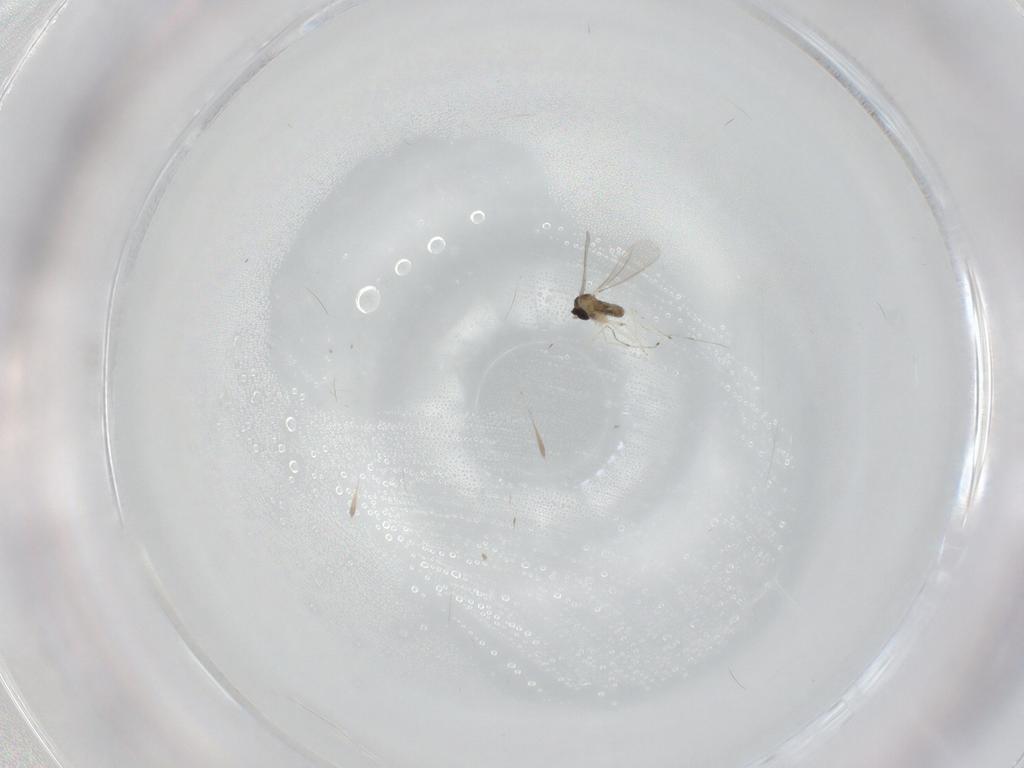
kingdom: Animalia
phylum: Arthropoda
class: Insecta
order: Diptera
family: Cecidomyiidae
